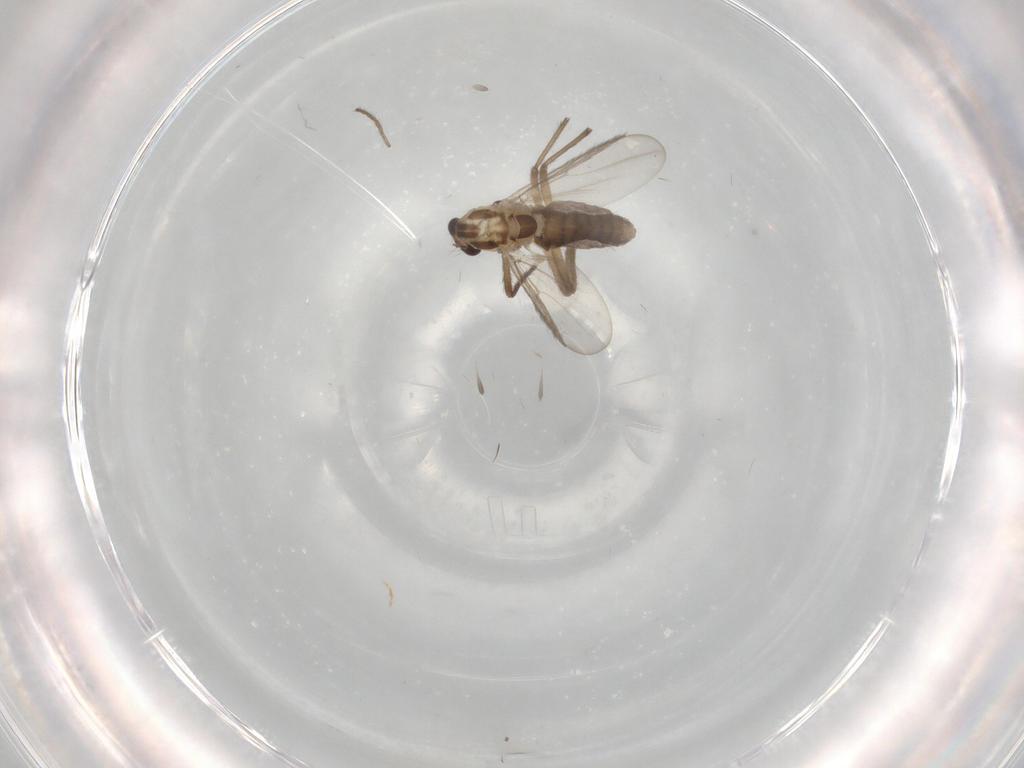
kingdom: Animalia
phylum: Arthropoda
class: Insecta
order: Diptera
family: Chironomidae
